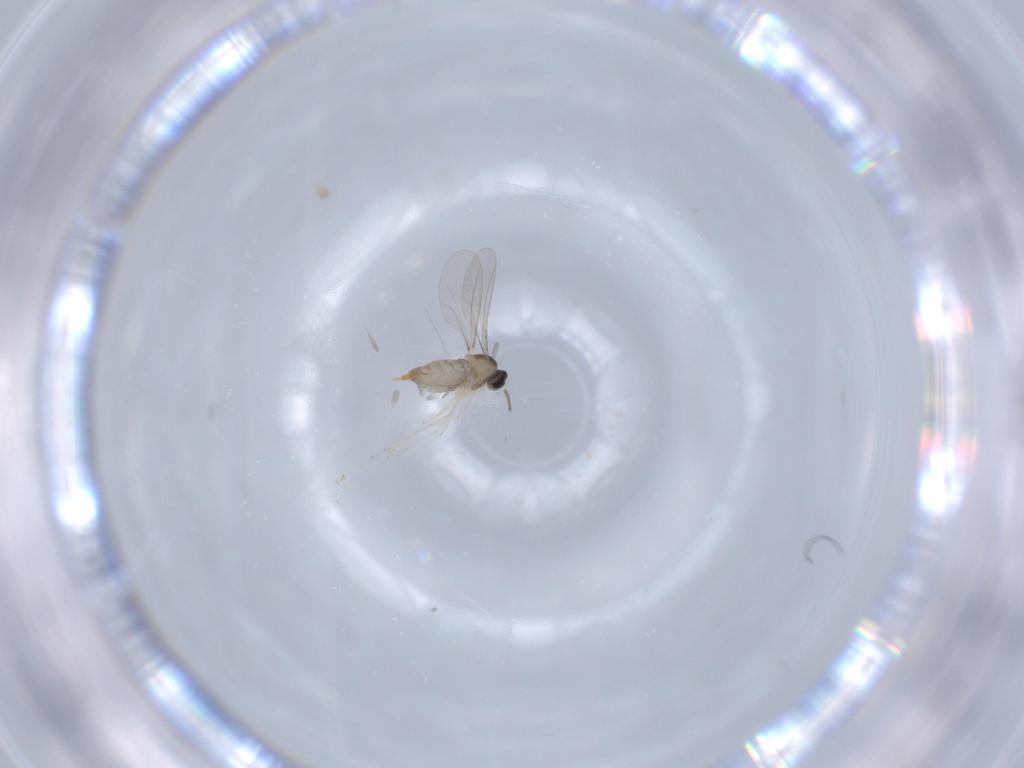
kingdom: Animalia
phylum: Arthropoda
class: Insecta
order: Diptera
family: Cecidomyiidae
